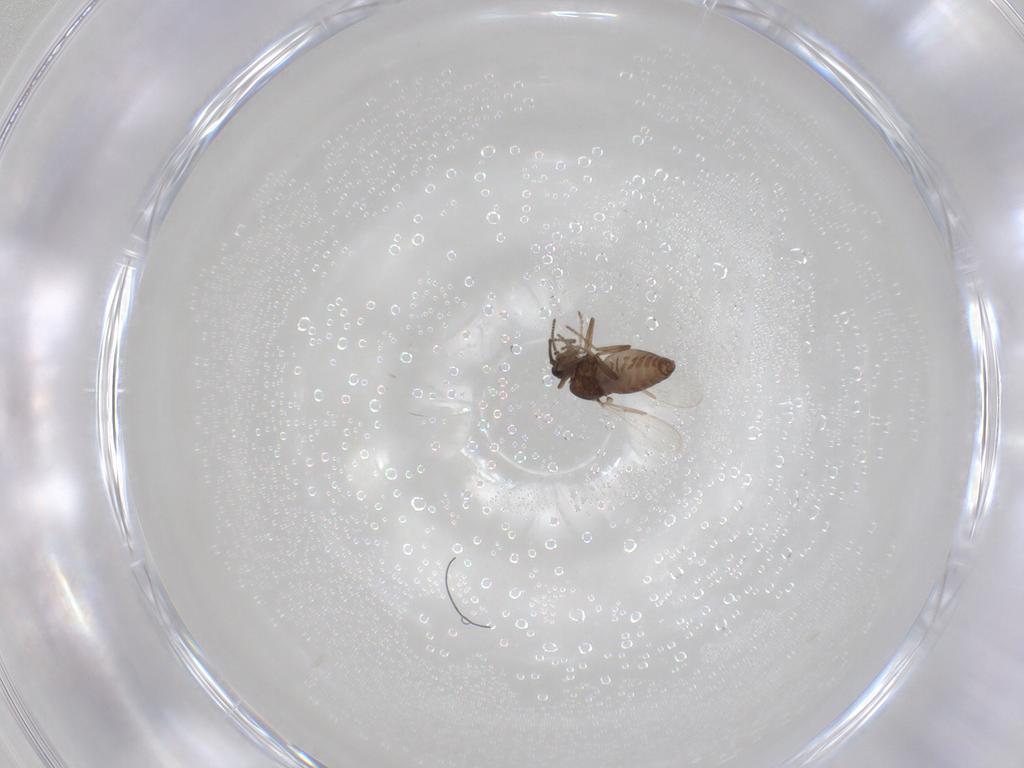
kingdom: Animalia
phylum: Arthropoda
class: Insecta
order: Diptera
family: Ceratopogonidae
